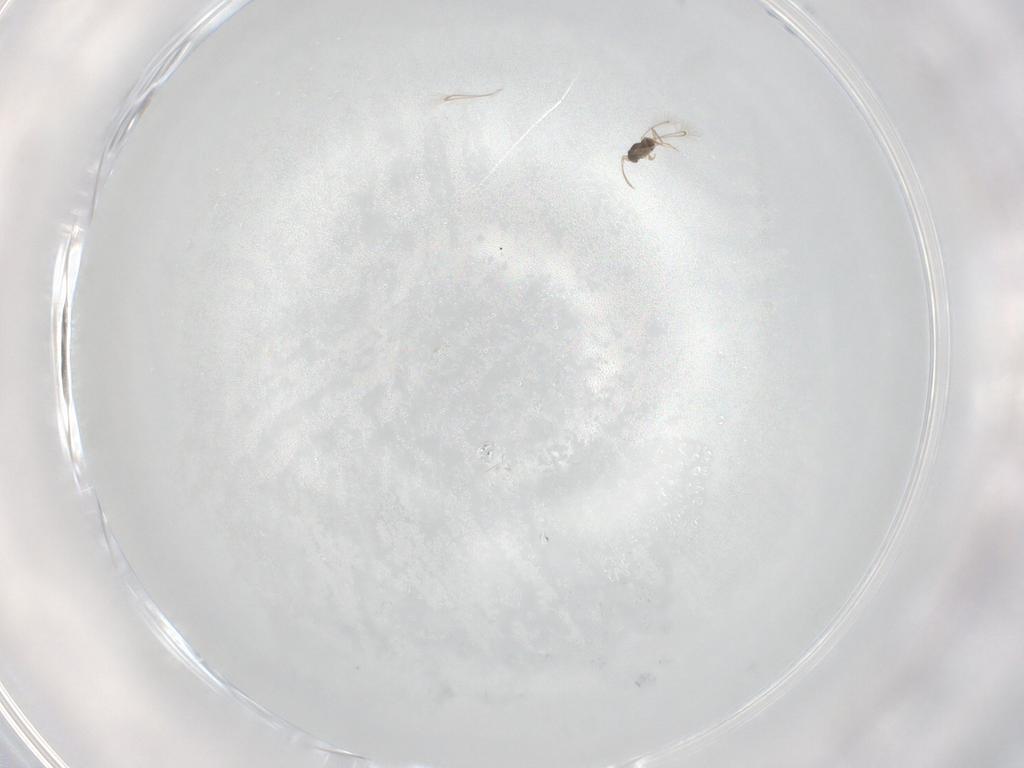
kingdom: Animalia
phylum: Arthropoda
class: Insecta
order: Hymenoptera
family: Mymaridae
